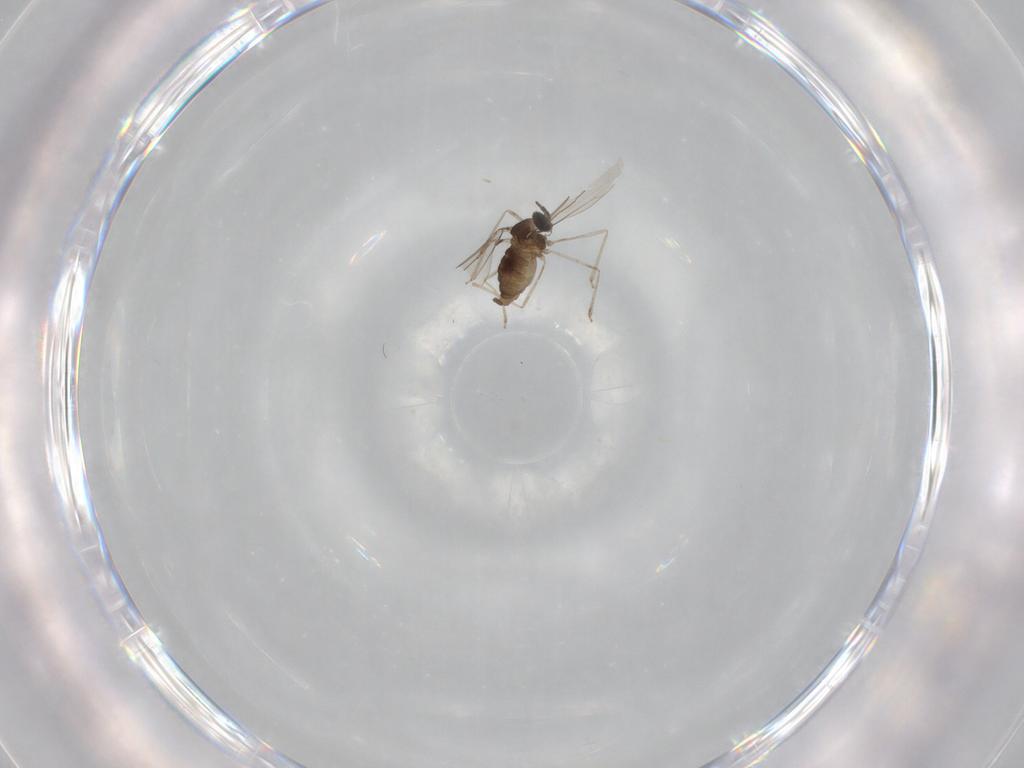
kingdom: Animalia
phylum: Arthropoda
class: Insecta
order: Diptera
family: Cecidomyiidae
